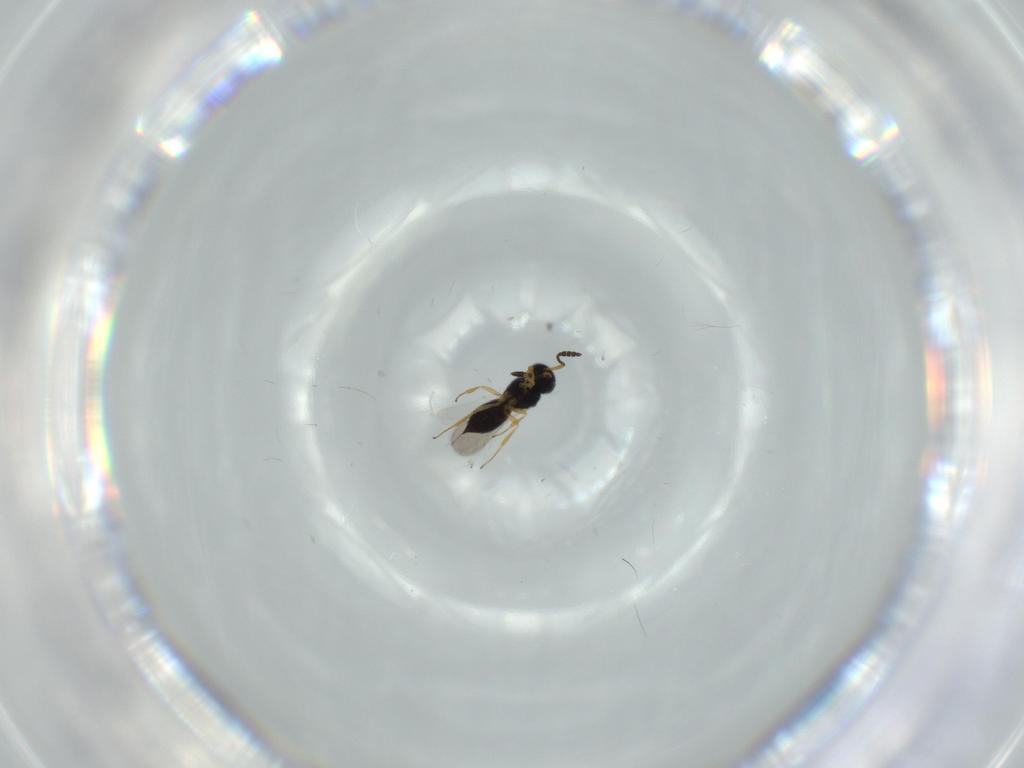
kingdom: Animalia
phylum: Arthropoda
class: Insecta
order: Hymenoptera
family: Scelionidae
